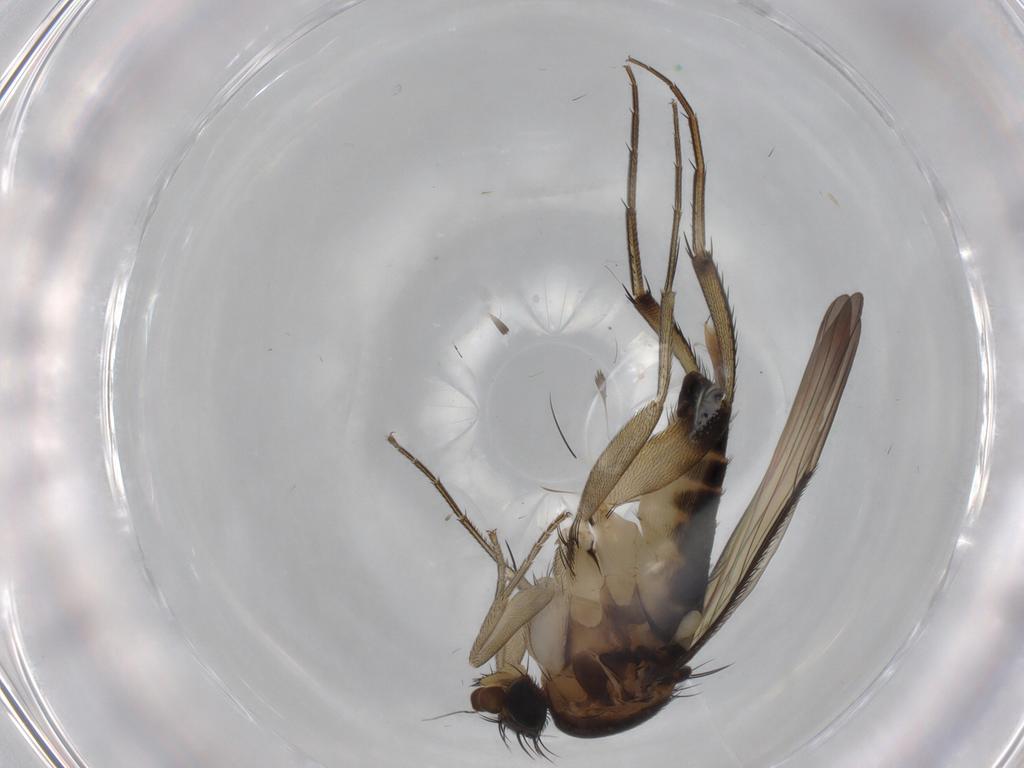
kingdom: Animalia
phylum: Arthropoda
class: Insecta
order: Diptera
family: Phoridae
